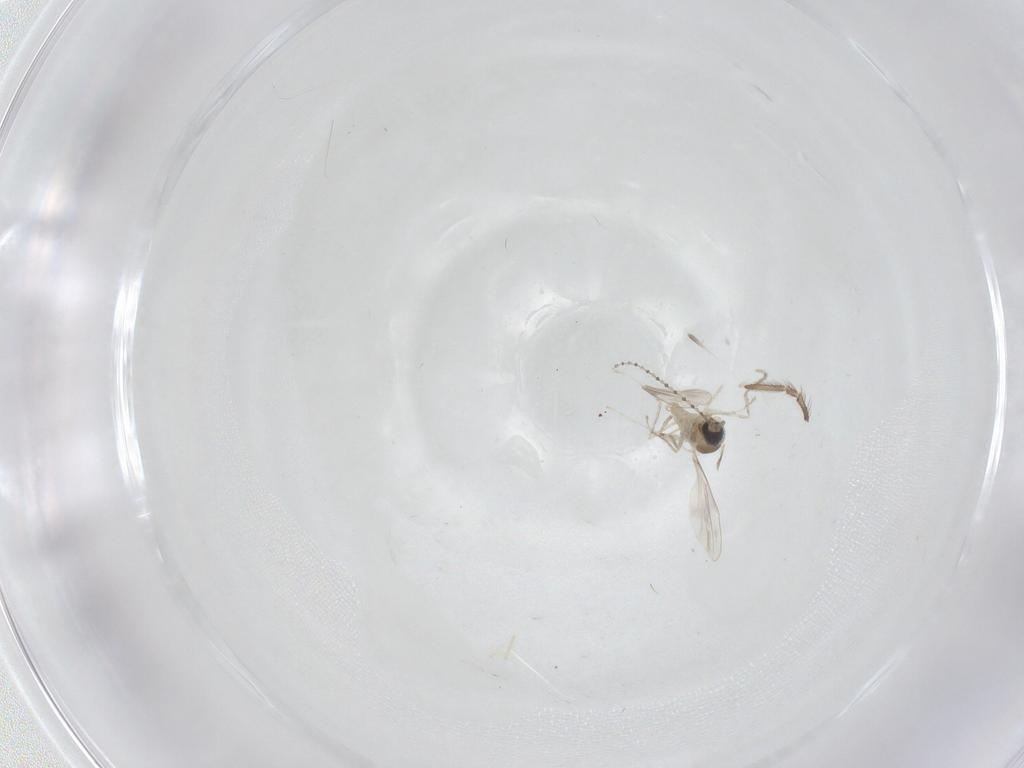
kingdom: Animalia
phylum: Arthropoda
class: Insecta
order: Diptera
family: Cecidomyiidae
